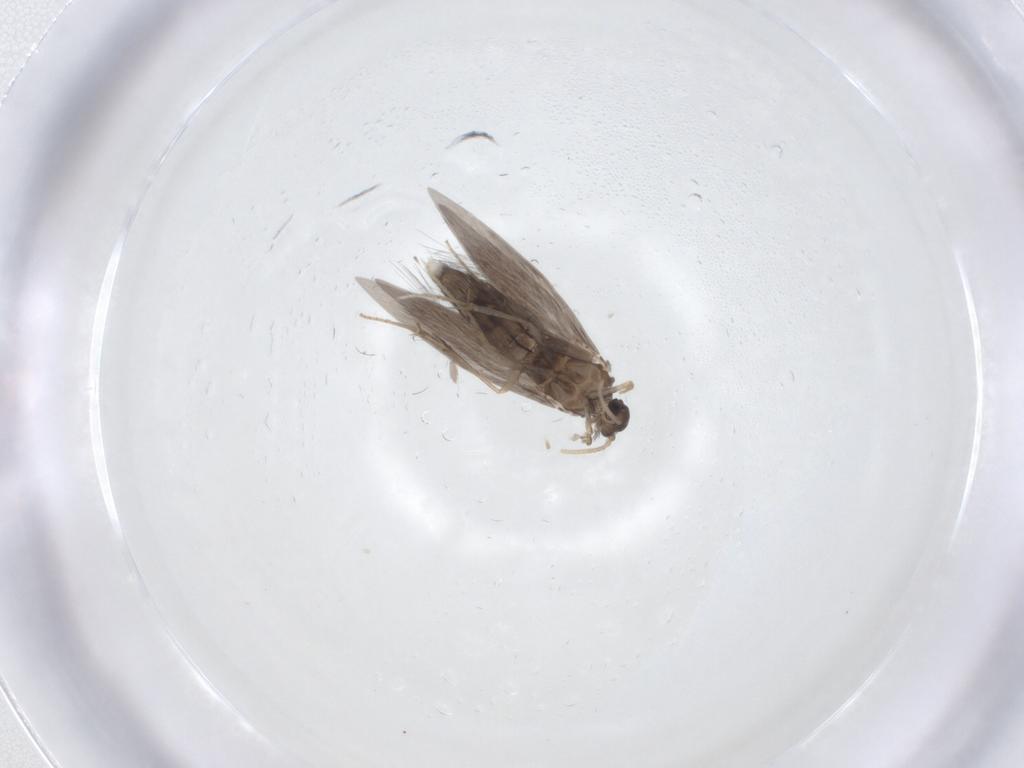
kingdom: Animalia
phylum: Arthropoda
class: Insecta
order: Trichoptera
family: Hydroptilidae
